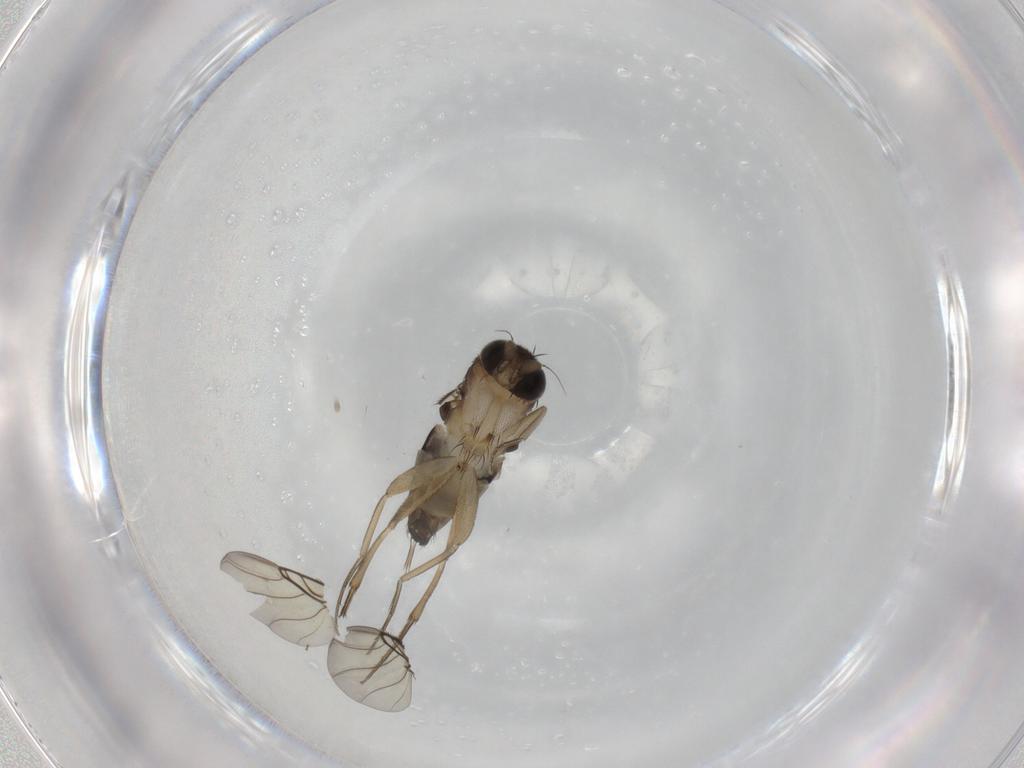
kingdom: Animalia
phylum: Arthropoda
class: Insecta
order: Diptera
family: Phoridae
